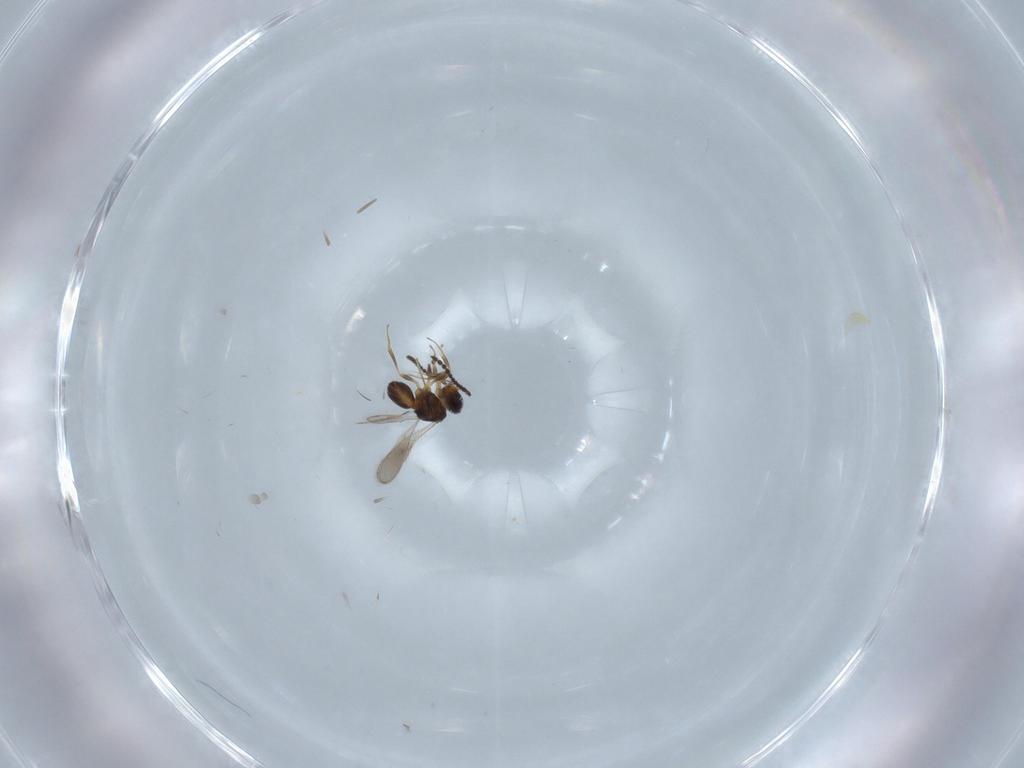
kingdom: Animalia
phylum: Arthropoda
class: Insecta
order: Hymenoptera
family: Scelionidae
